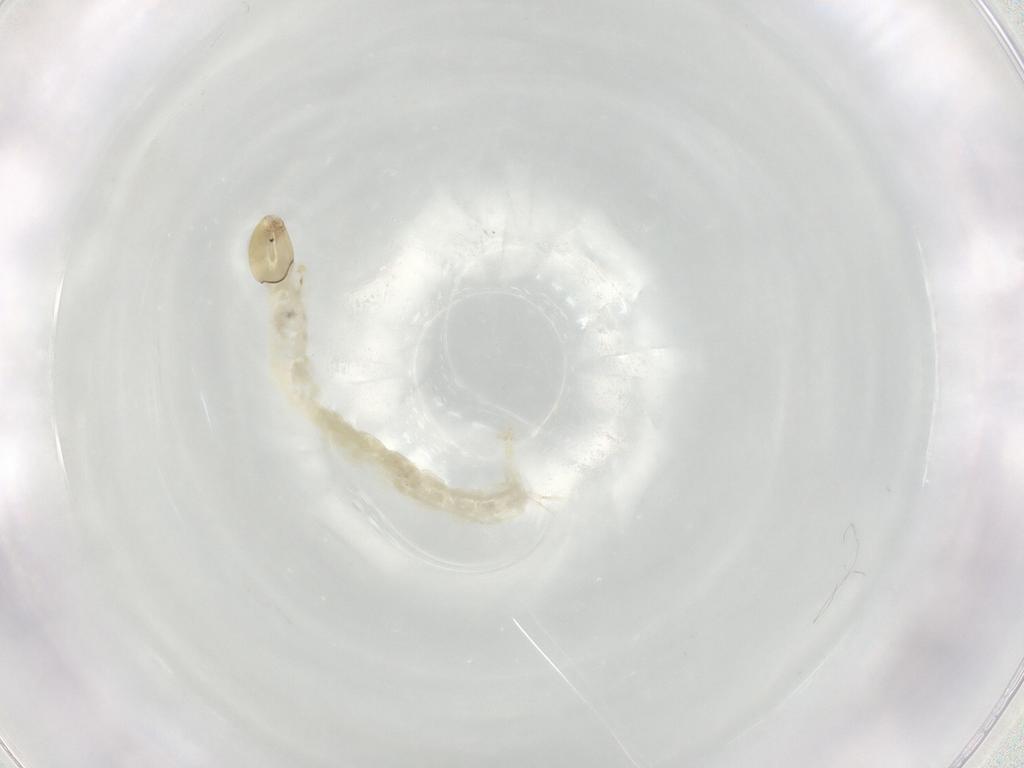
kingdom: Animalia
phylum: Arthropoda
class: Insecta
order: Diptera
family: Chironomidae
